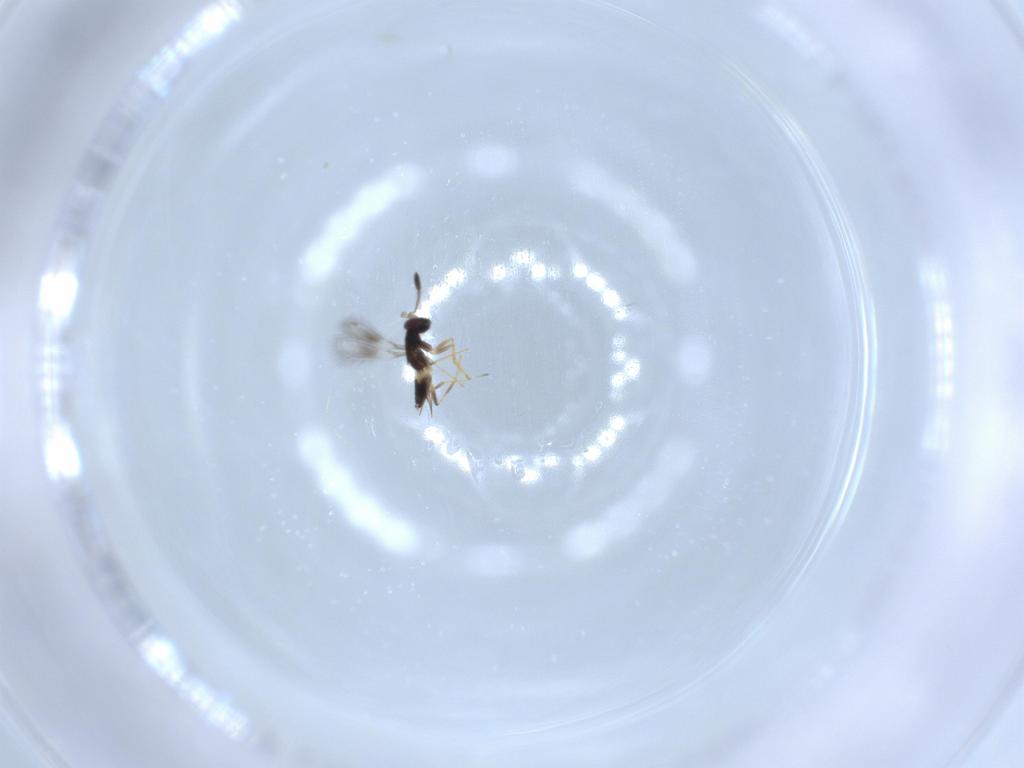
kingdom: Animalia
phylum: Arthropoda
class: Insecta
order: Hymenoptera
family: Mymaridae
